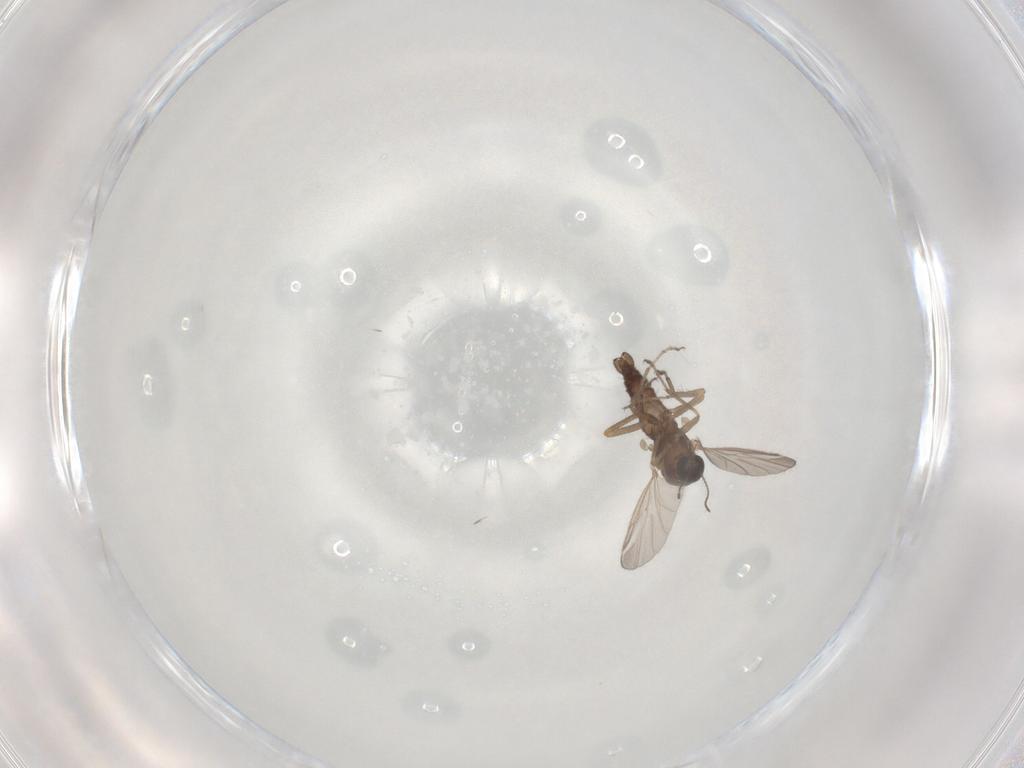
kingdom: Animalia
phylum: Arthropoda
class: Insecta
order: Diptera
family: Ceratopogonidae
